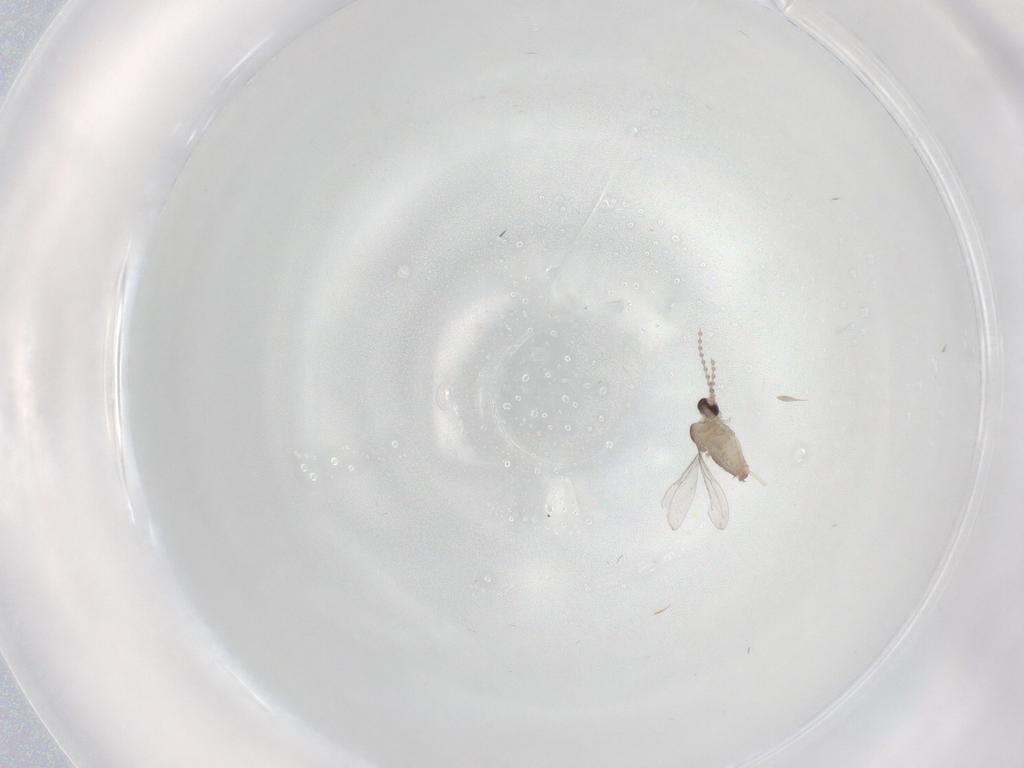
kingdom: Animalia
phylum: Arthropoda
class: Insecta
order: Diptera
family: Cecidomyiidae
